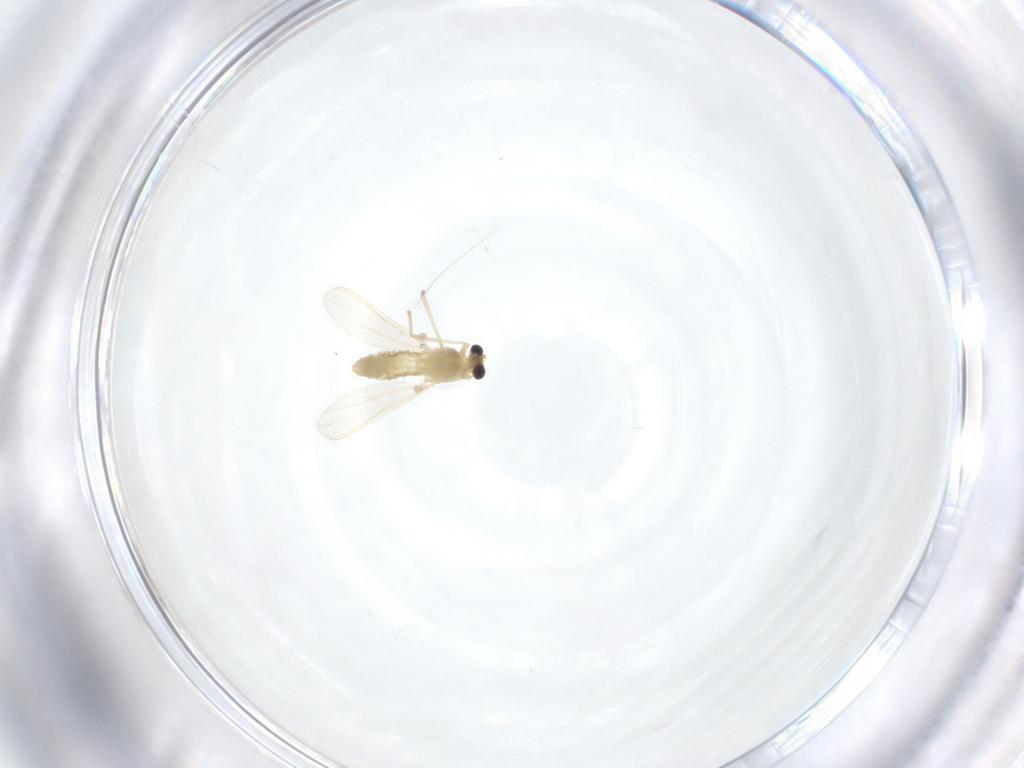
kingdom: Animalia
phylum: Arthropoda
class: Insecta
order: Diptera
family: Chironomidae
